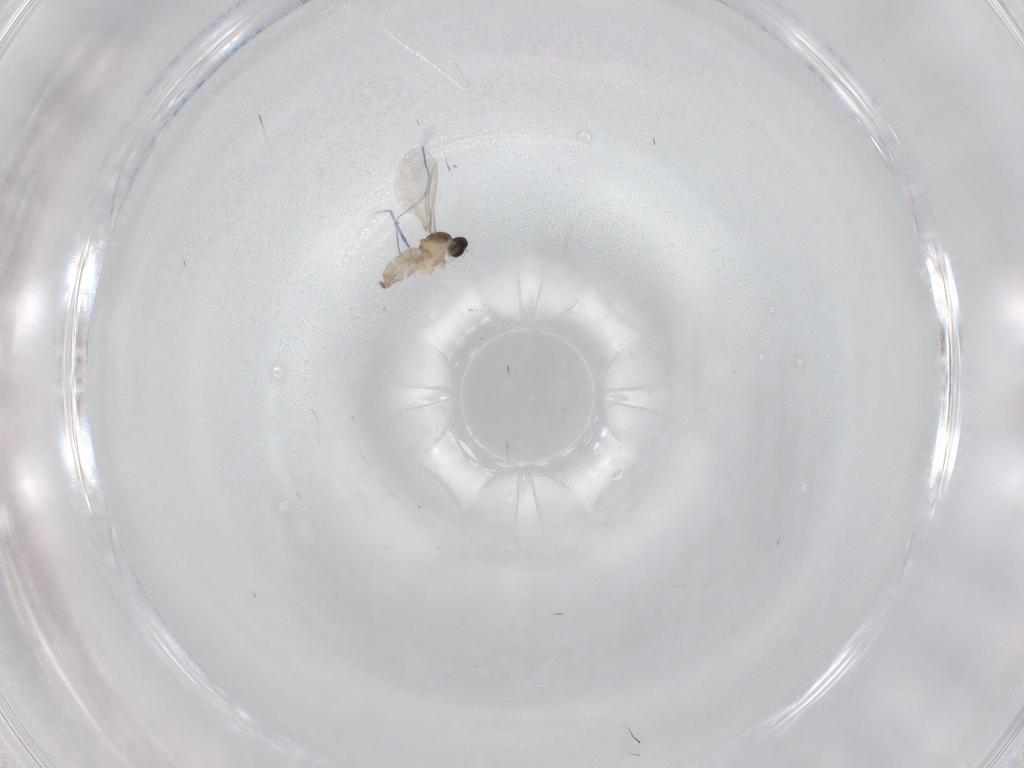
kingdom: Animalia
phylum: Arthropoda
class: Insecta
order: Diptera
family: Cecidomyiidae
